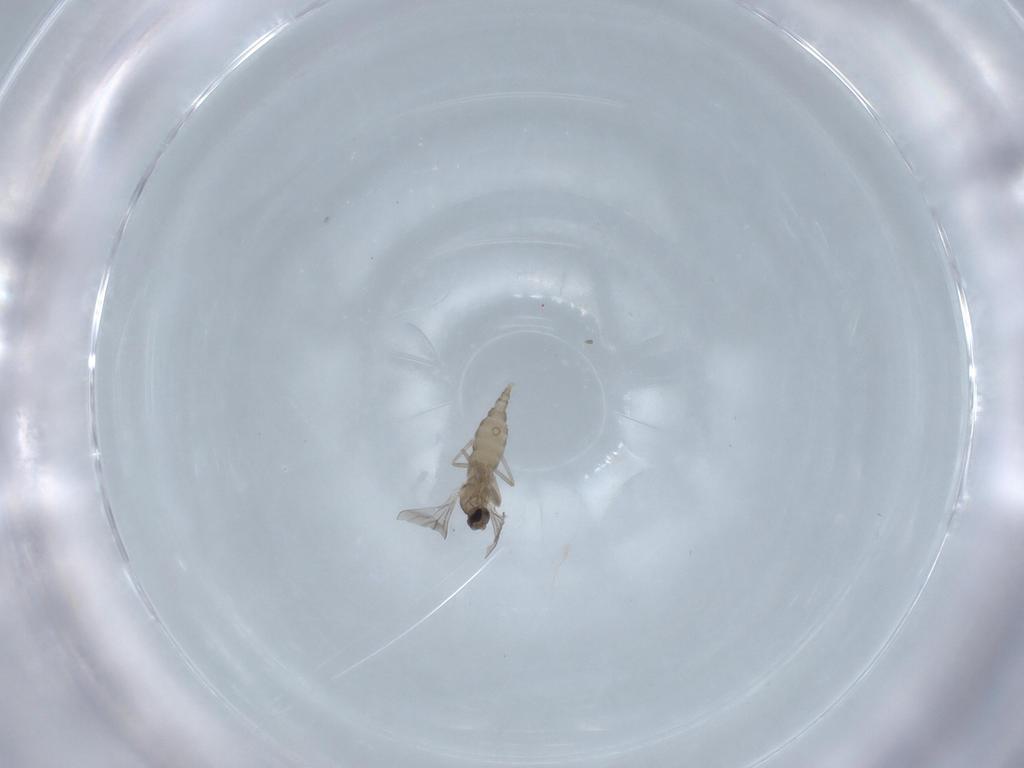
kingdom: Animalia
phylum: Arthropoda
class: Insecta
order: Diptera
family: Cecidomyiidae
